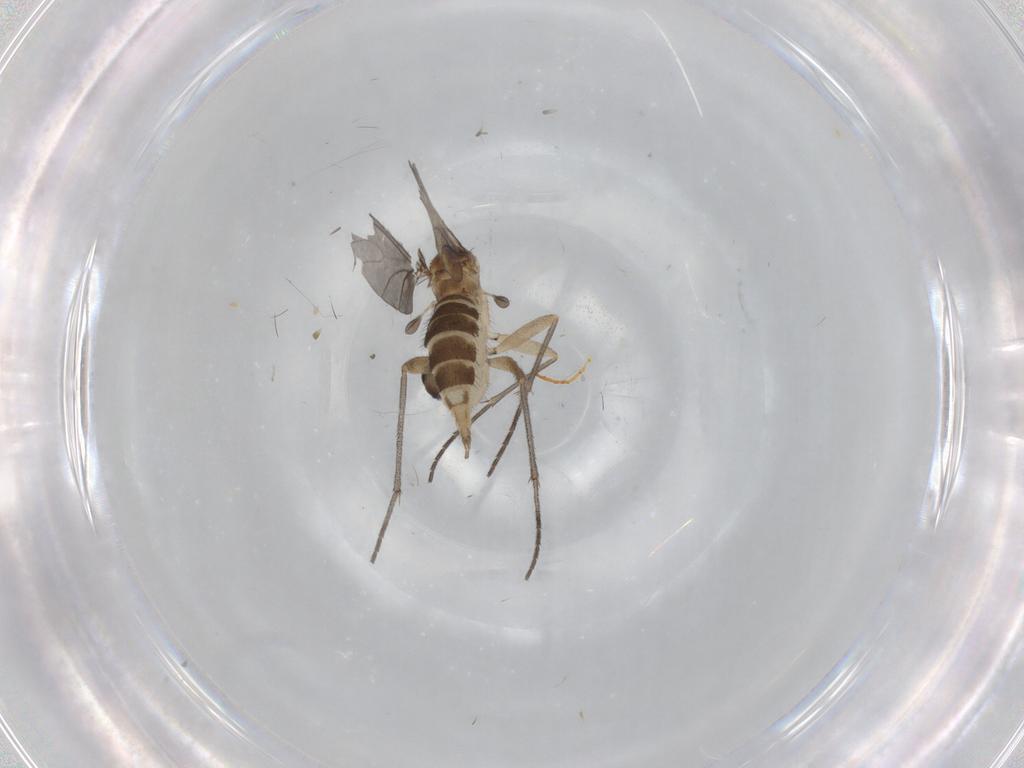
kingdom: Animalia
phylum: Arthropoda
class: Insecta
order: Diptera
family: Sciaridae
